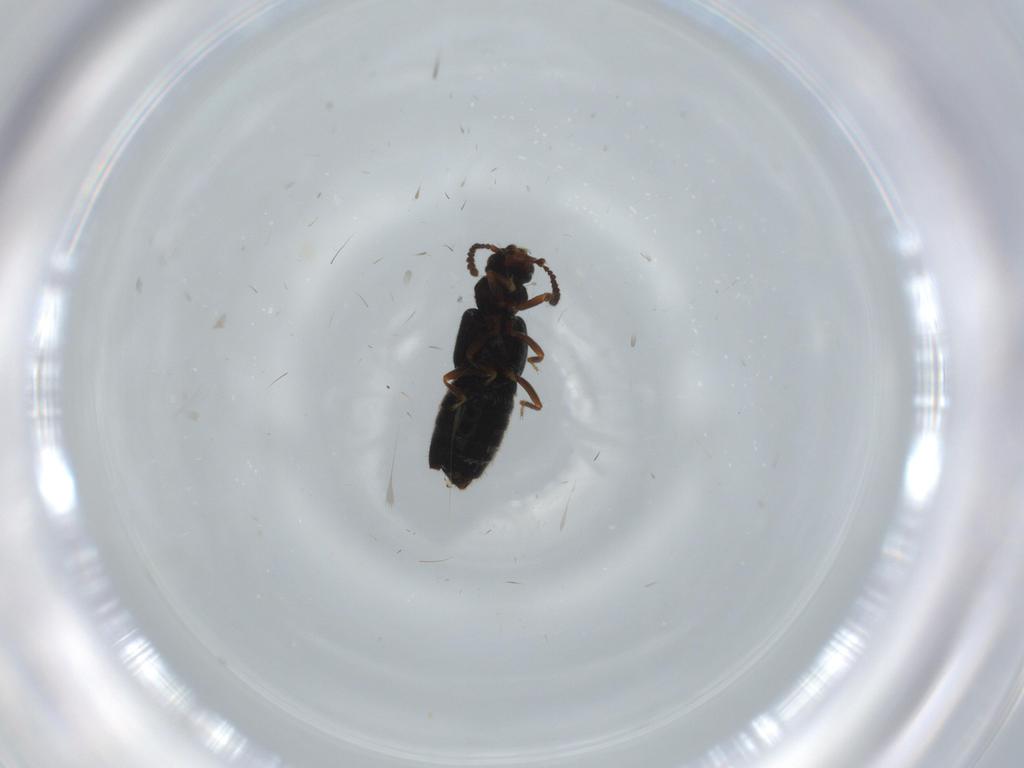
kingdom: Animalia
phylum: Arthropoda
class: Insecta
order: Coleoptera
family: Staphylinidae
